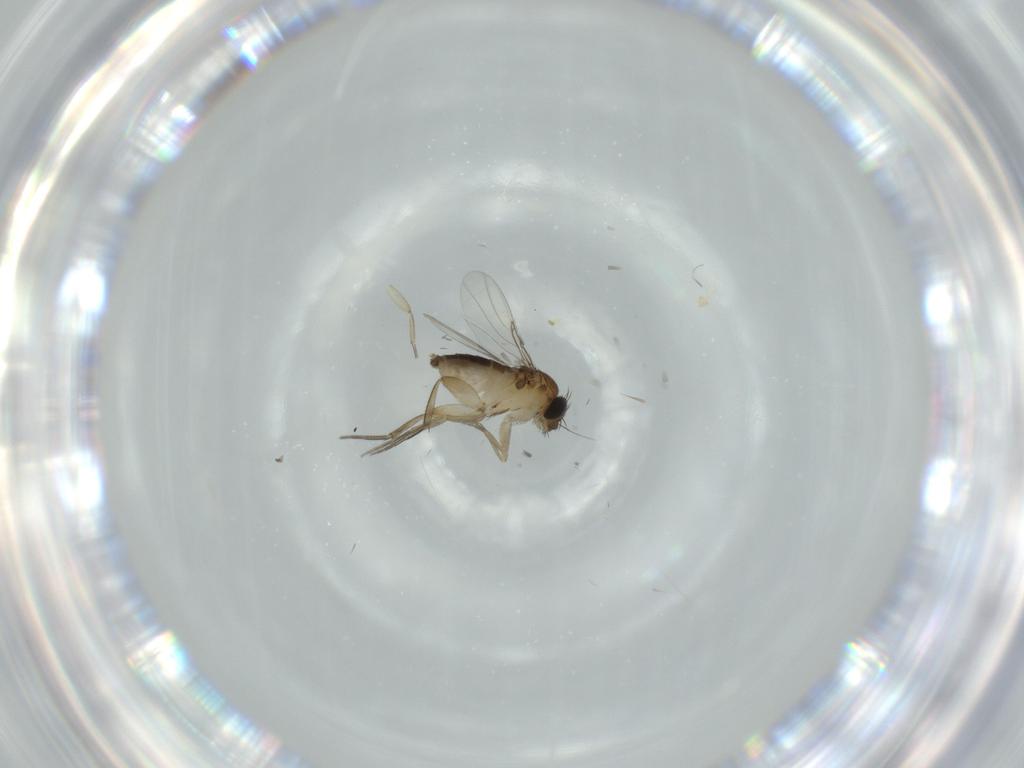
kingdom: Animalia
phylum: Arthropoda
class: Insecta
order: Diptera
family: Phoridae
